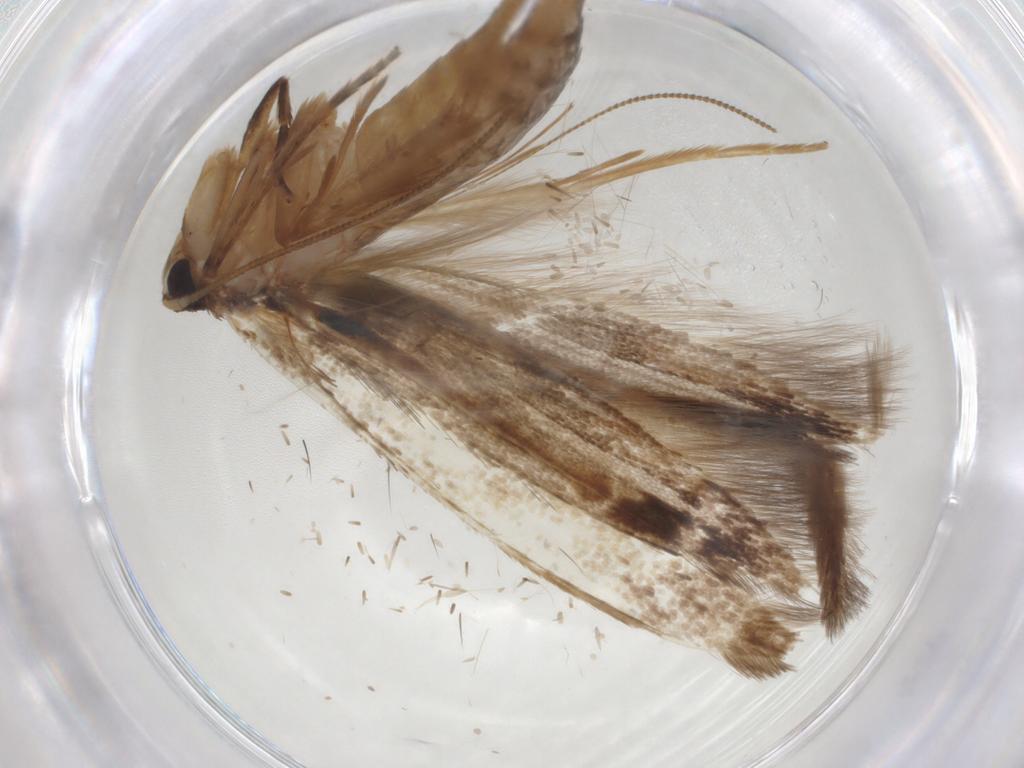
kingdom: Animalia
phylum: Arthropoda
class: Insecta
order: Lepidoptera
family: Tineidae
